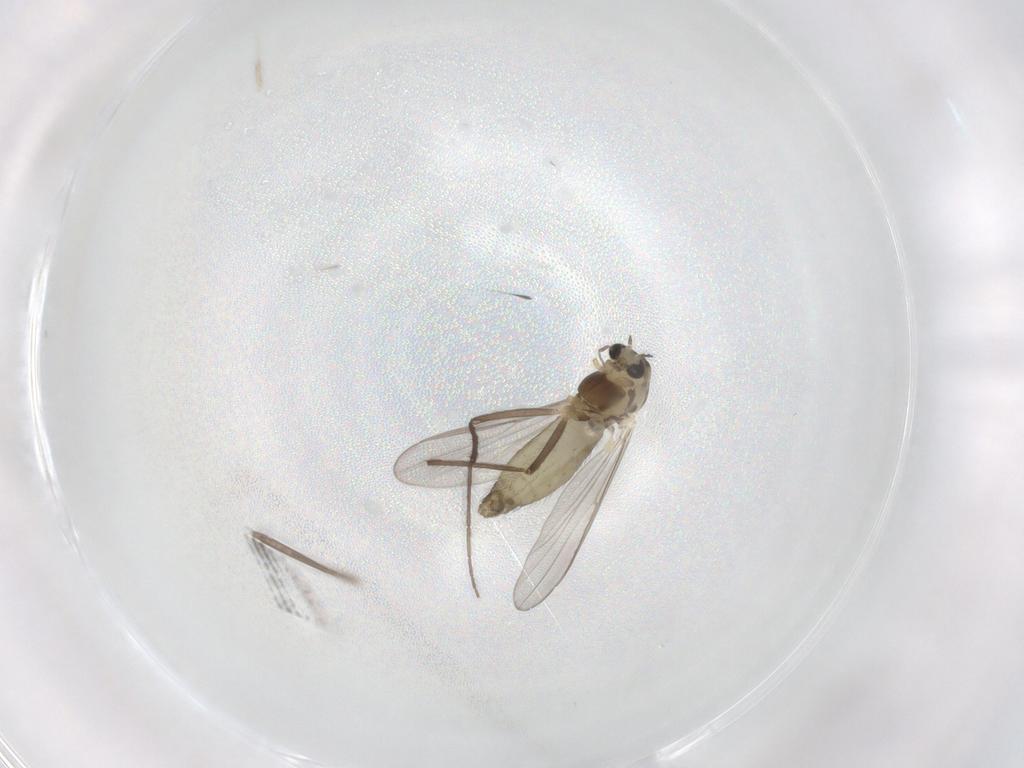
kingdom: Animalia
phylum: Arthropoda
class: Insecta
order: Diptera
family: Chironomidae
